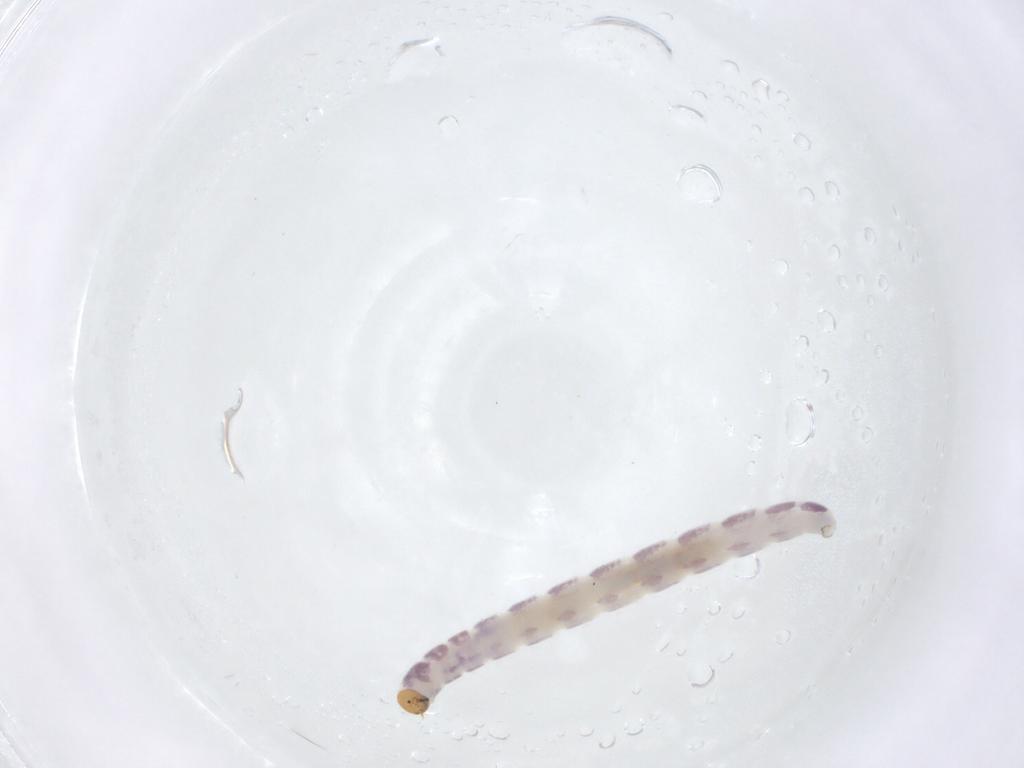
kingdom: Animalia
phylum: Arthropoda
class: Insecta
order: Diptera
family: Chironomidae
